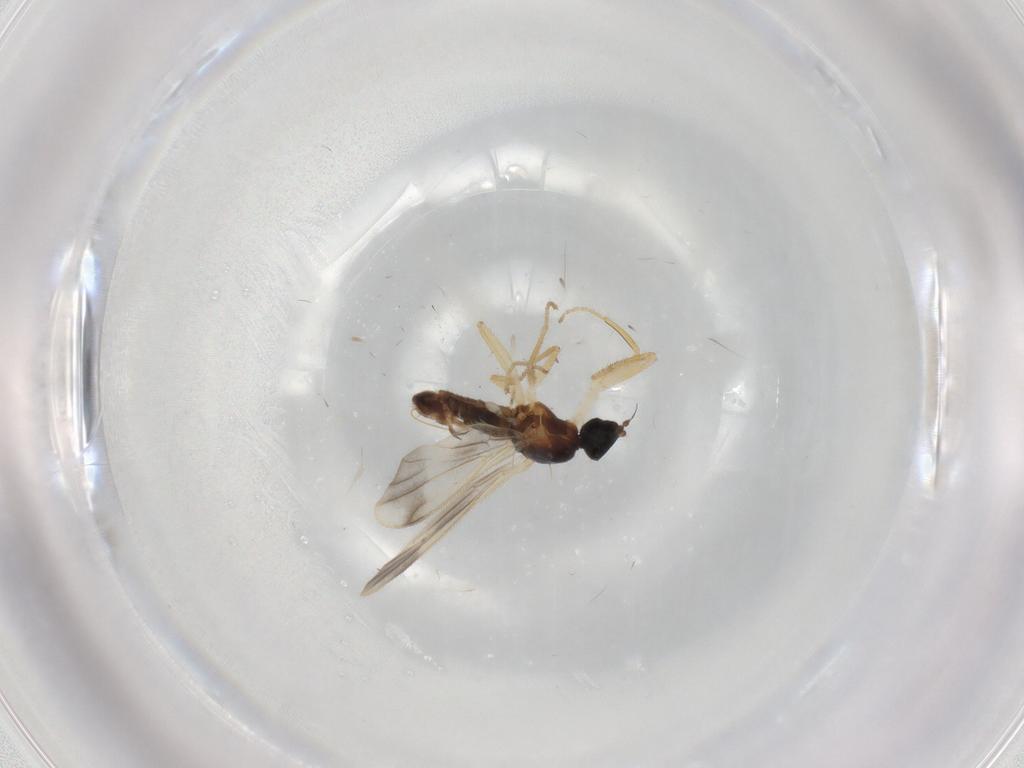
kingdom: Animalia
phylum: Arthropoda
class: Insecta
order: Diptera
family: Empididae
